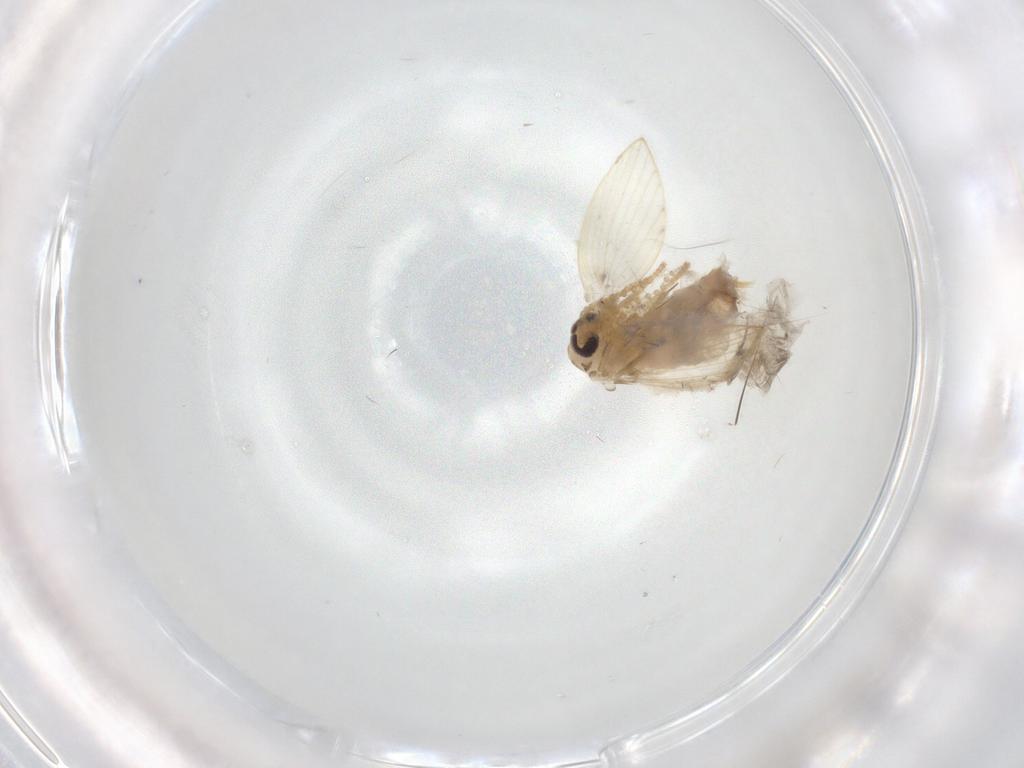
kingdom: Animalia
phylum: Arthropoda
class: Insecta
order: Diptera
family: Psychodidae
